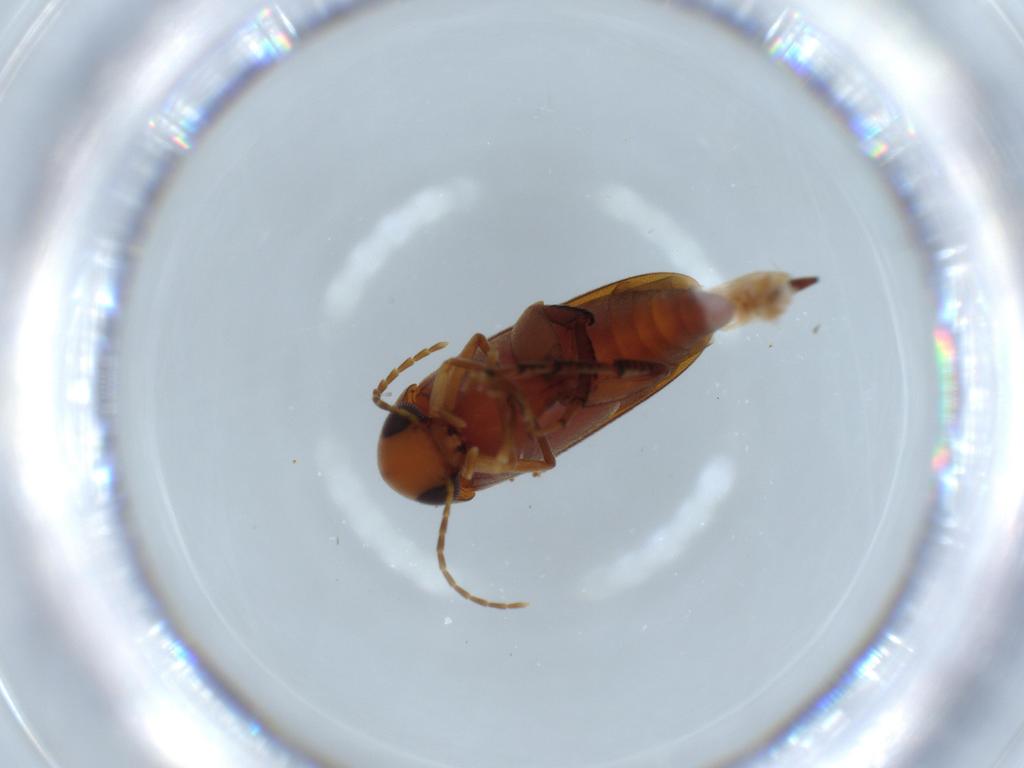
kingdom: Animalia
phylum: Arthropoda
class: Insecta
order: Coleoptera
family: Mordellidae
